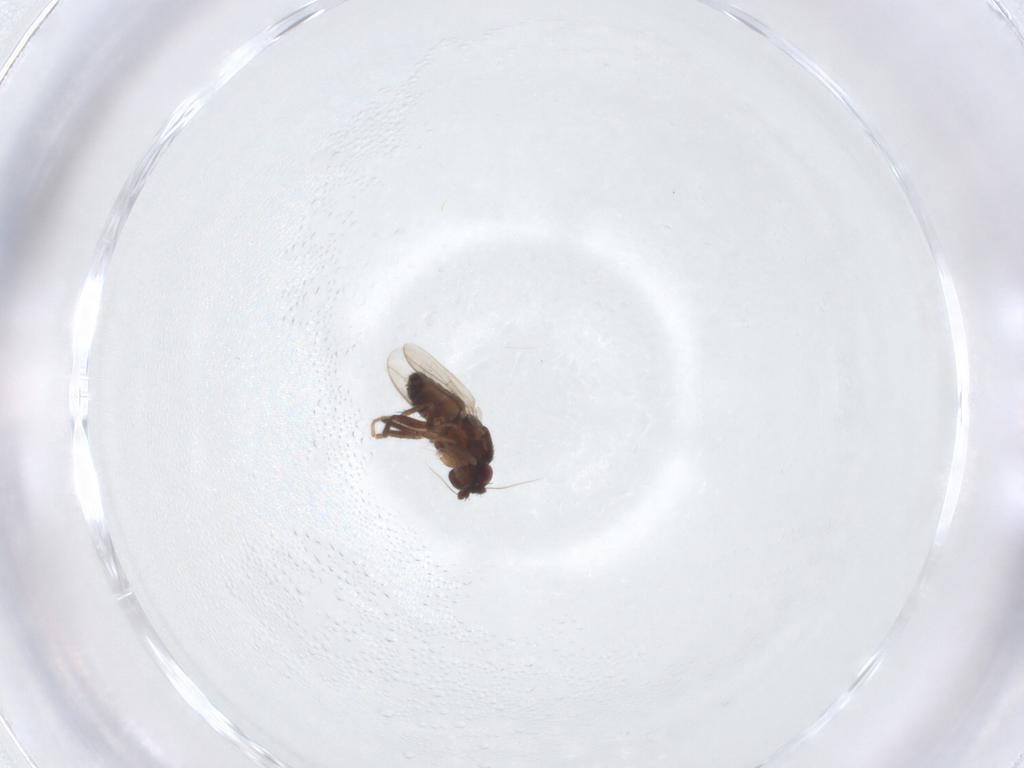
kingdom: Animalia
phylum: Arthropoda
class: Insecta
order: Diptera
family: Sphaeroceridae
